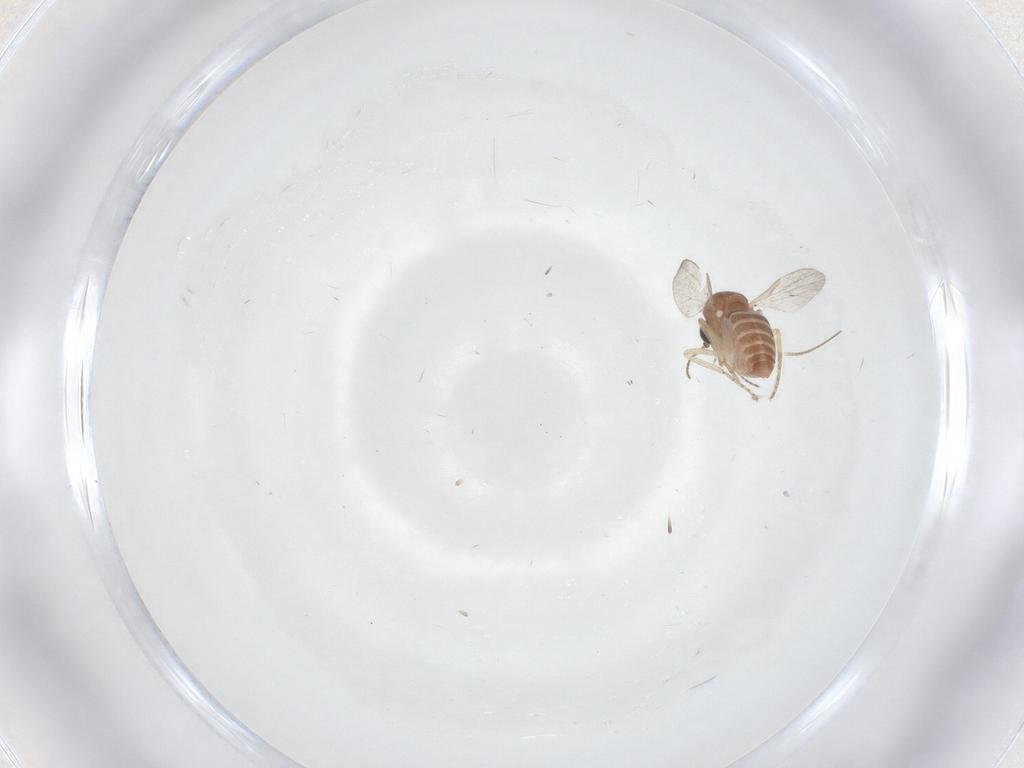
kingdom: Animalia
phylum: Arthropoda
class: Insecta
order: Diptera
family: Ceratopogonidae
